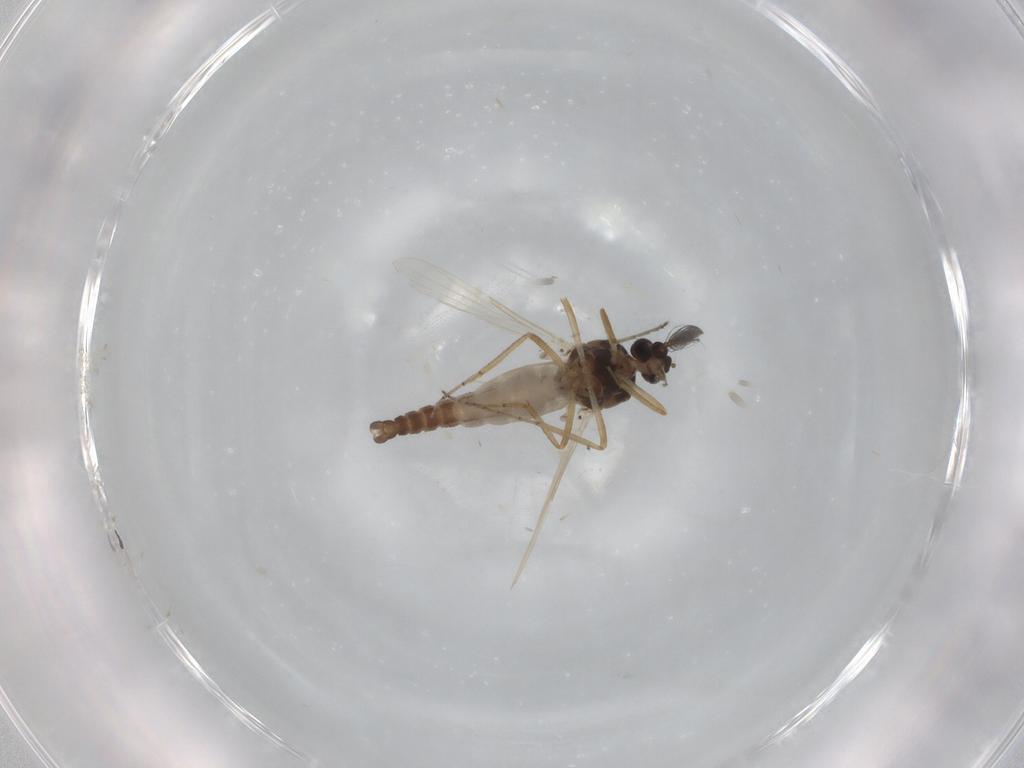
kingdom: Animalia
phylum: Arthropoda
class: Insecta
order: Diptera
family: Ceratopogonidae
